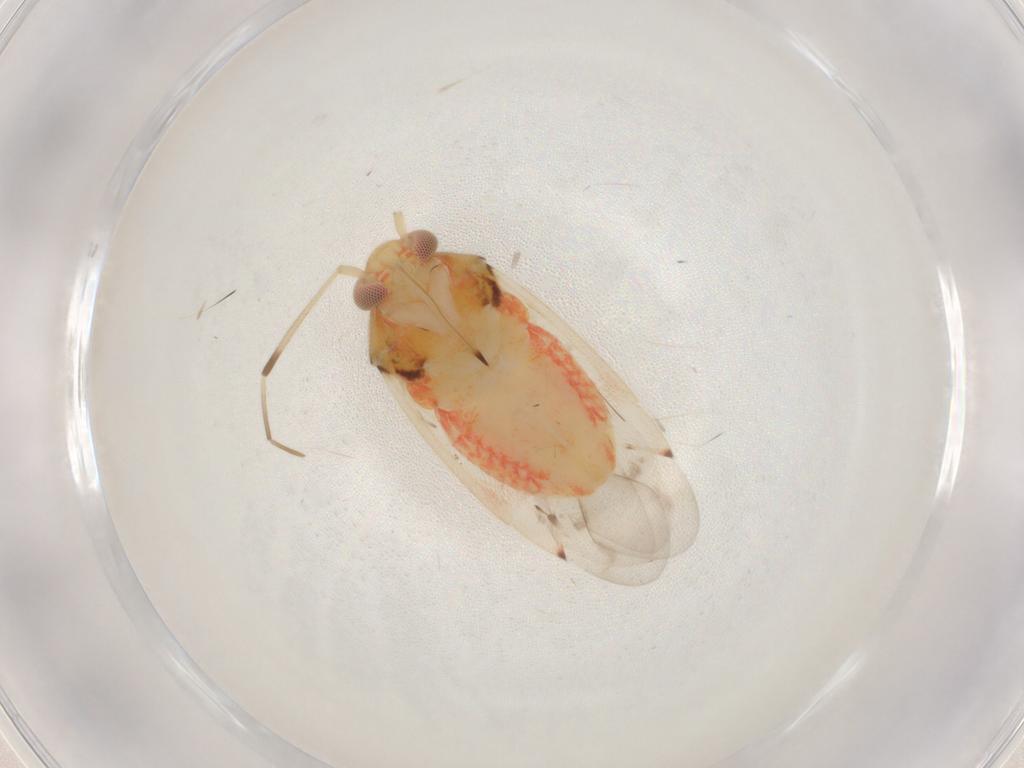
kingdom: Animalia
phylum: Arthropoda
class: Insecta
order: Hemiptera
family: Miridae
